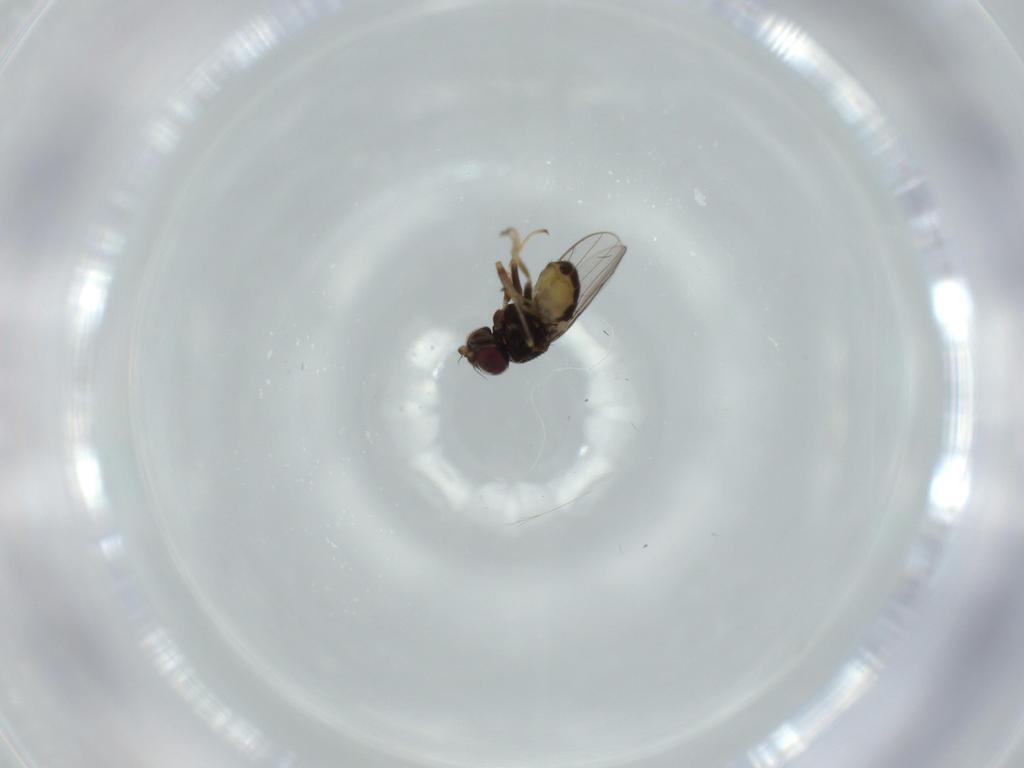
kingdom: Animalia
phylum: Arthropoda
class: Insecta
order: Diptera
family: Chloropidae
